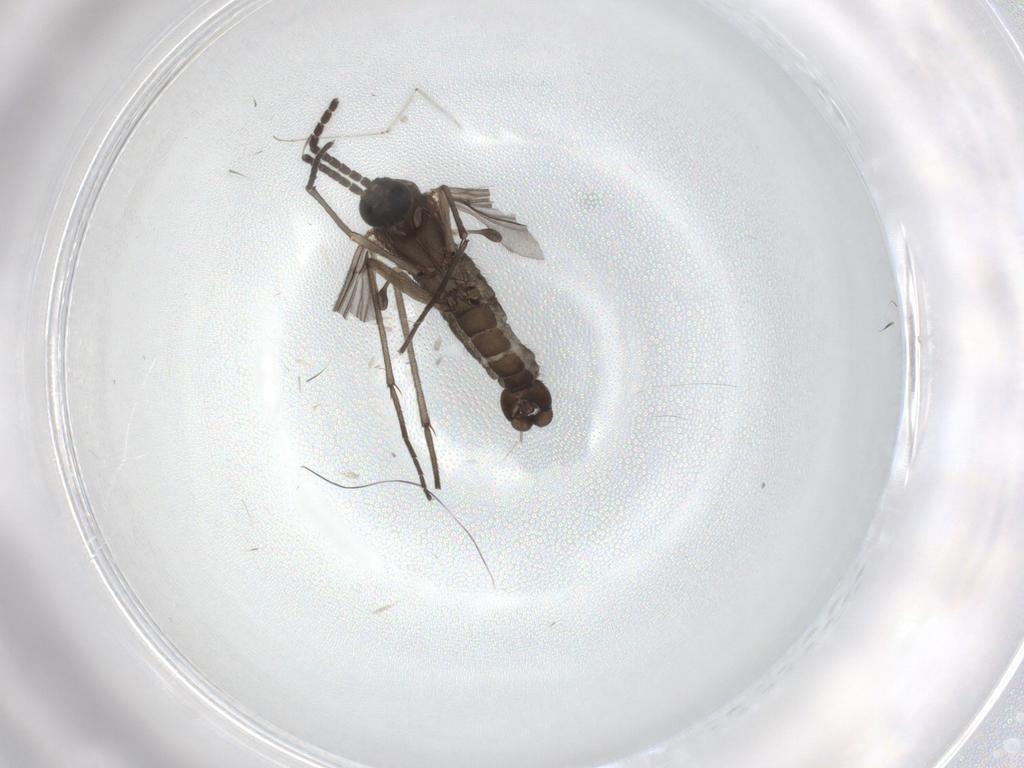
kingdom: Animalia
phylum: Arthropoda
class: Insecta
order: Diptera
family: Sciaridae
